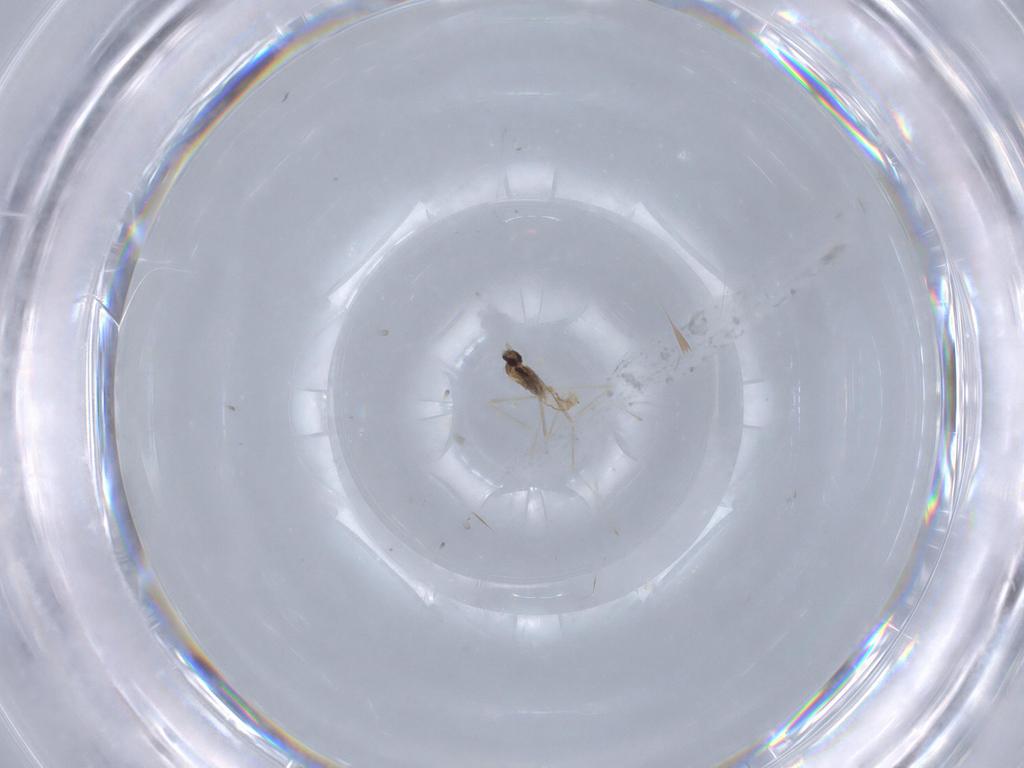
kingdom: Animalia
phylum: Arthropoda
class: Insecta
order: Diptera
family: Cecidomyiidae
